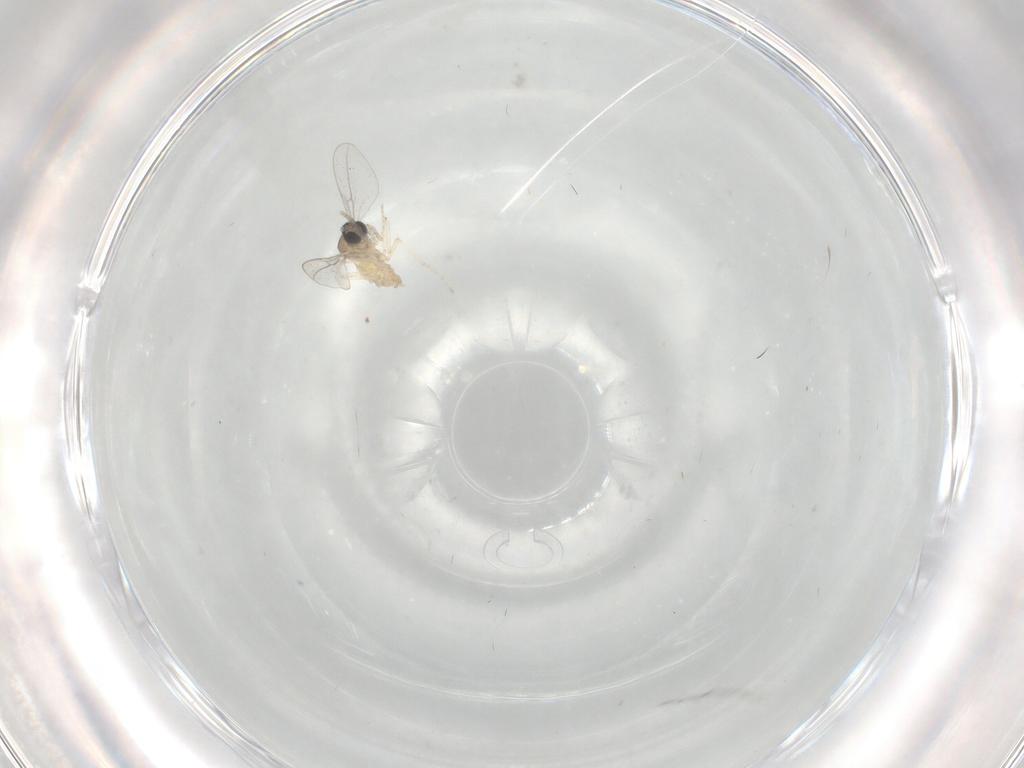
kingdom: Animalia
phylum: Arthropoda
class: Insecta
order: Diptera
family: Cecidomyiidae
